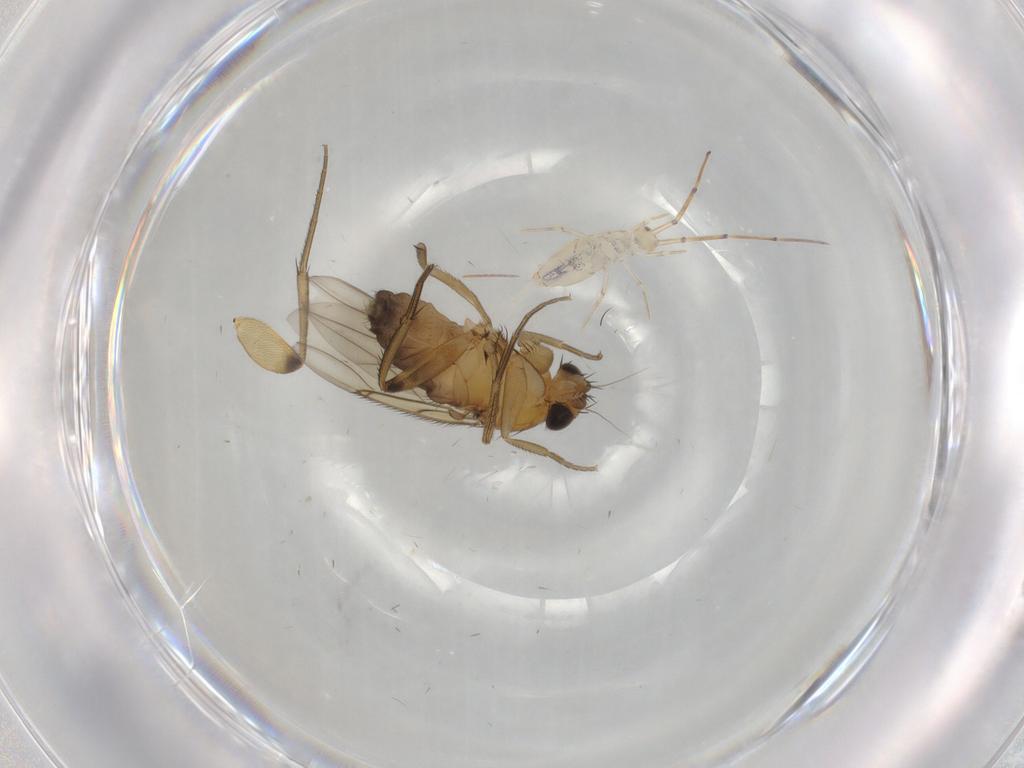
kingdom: Animalia
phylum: Arthropoda
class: Insecta
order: Diptera
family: Phoridae
